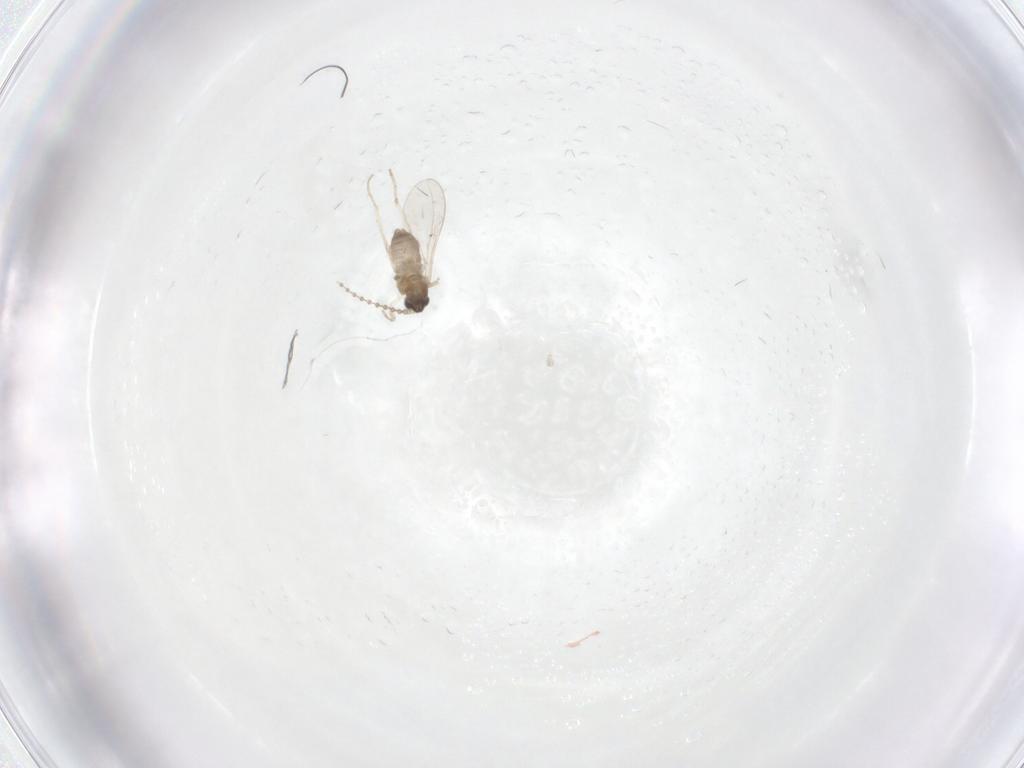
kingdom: Animalia
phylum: Arthropoda
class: Insecta
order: Diptera
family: Cecidomyiidae
